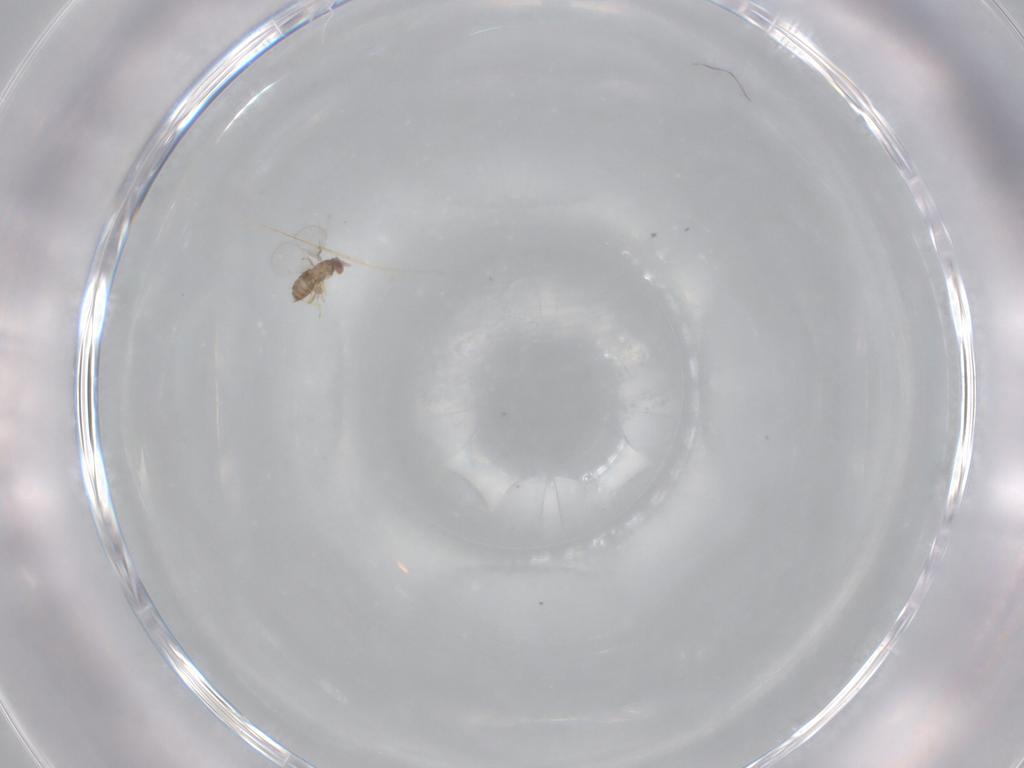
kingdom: Animalia
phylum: Arthropoda
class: Insecta
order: Hymenoptera
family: Trichogrammatidae
